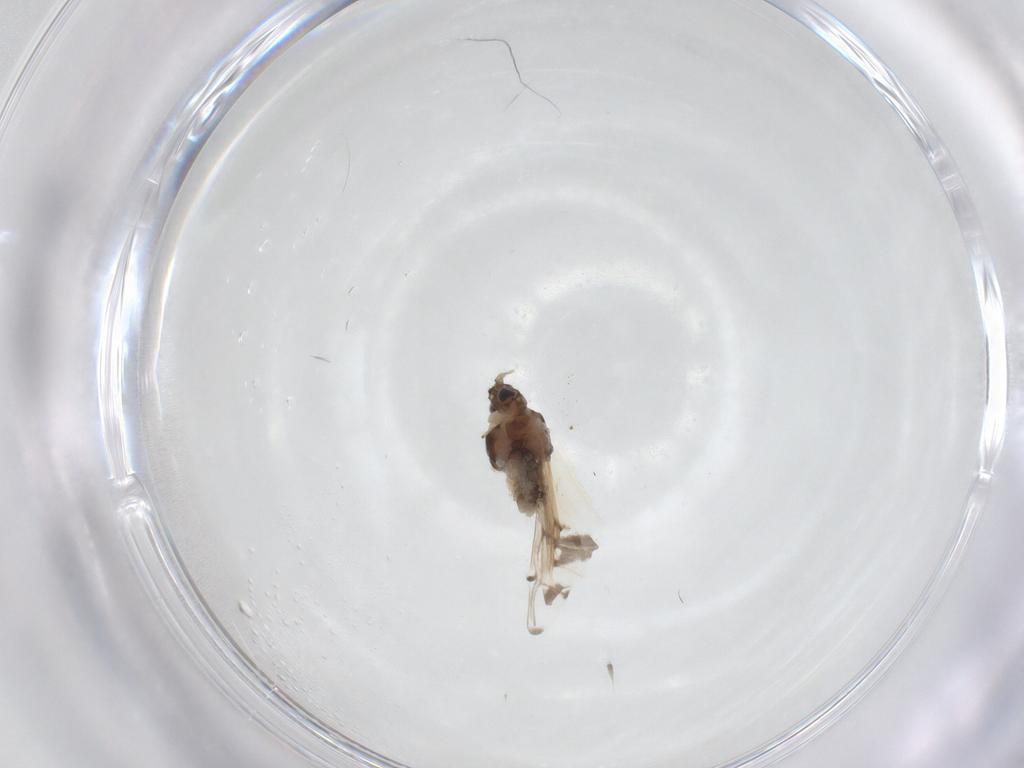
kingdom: Animalia
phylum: Arthropoda
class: Insecta
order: Hemiptera
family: Aphididae
